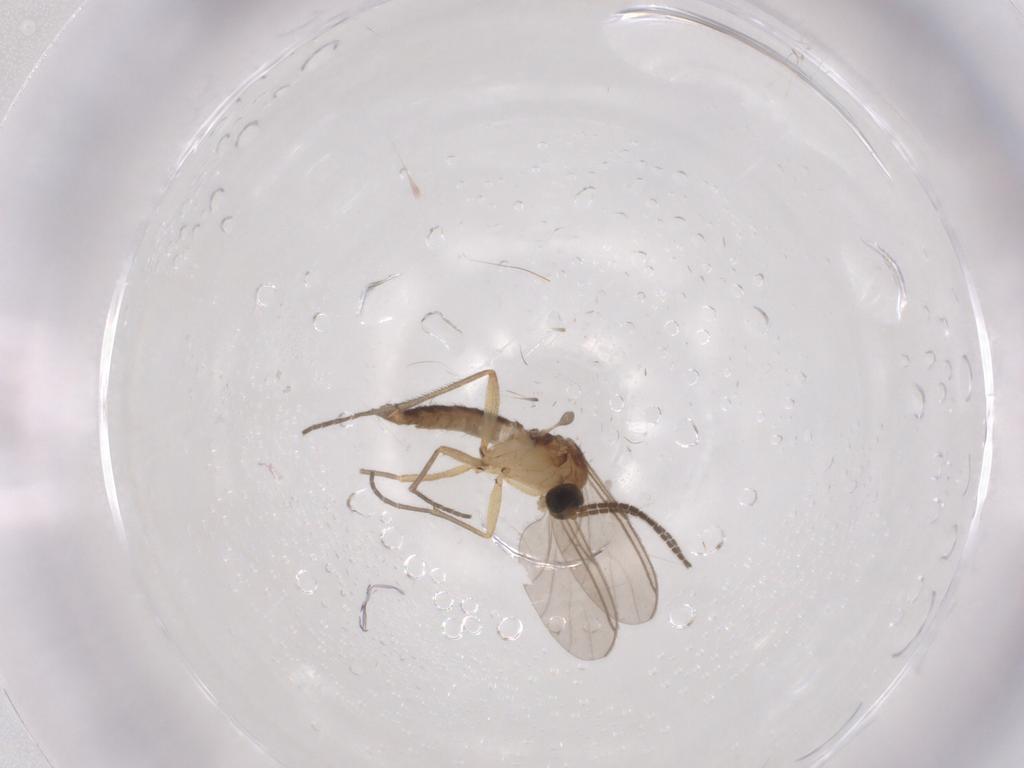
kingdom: Animalia
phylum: Arthropoda
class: Insecta
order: Diptera
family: Sciaridae
